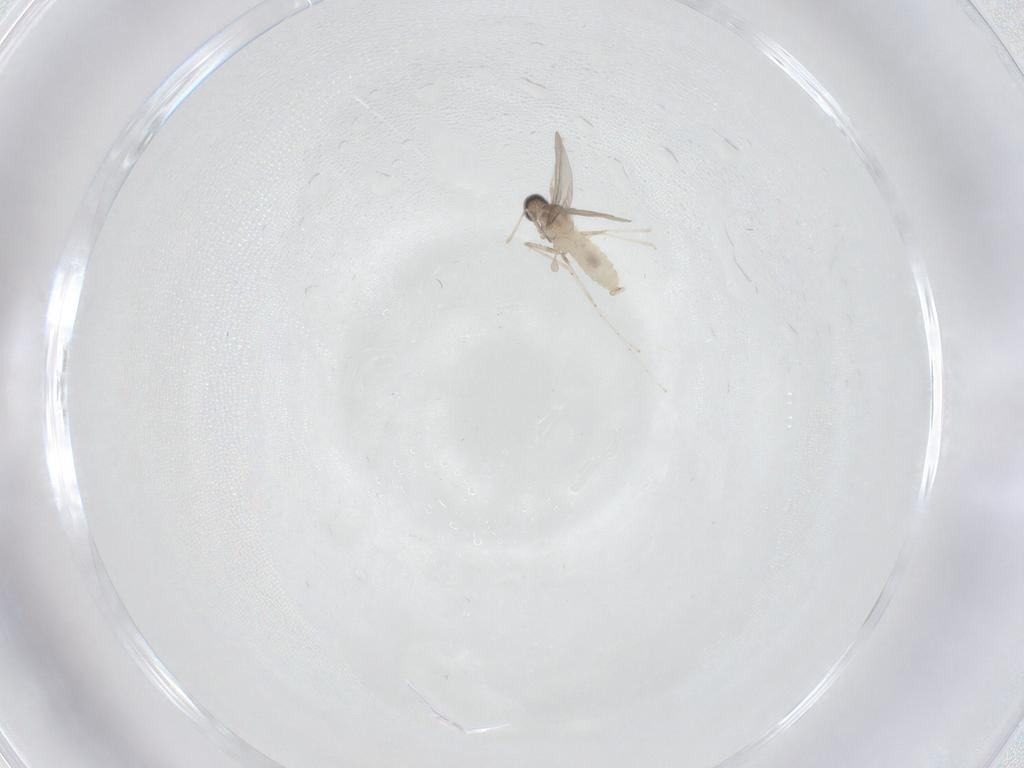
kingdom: Animalia
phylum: Arthropoda
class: Insecta
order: Diptera
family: Cecidomyiidae
